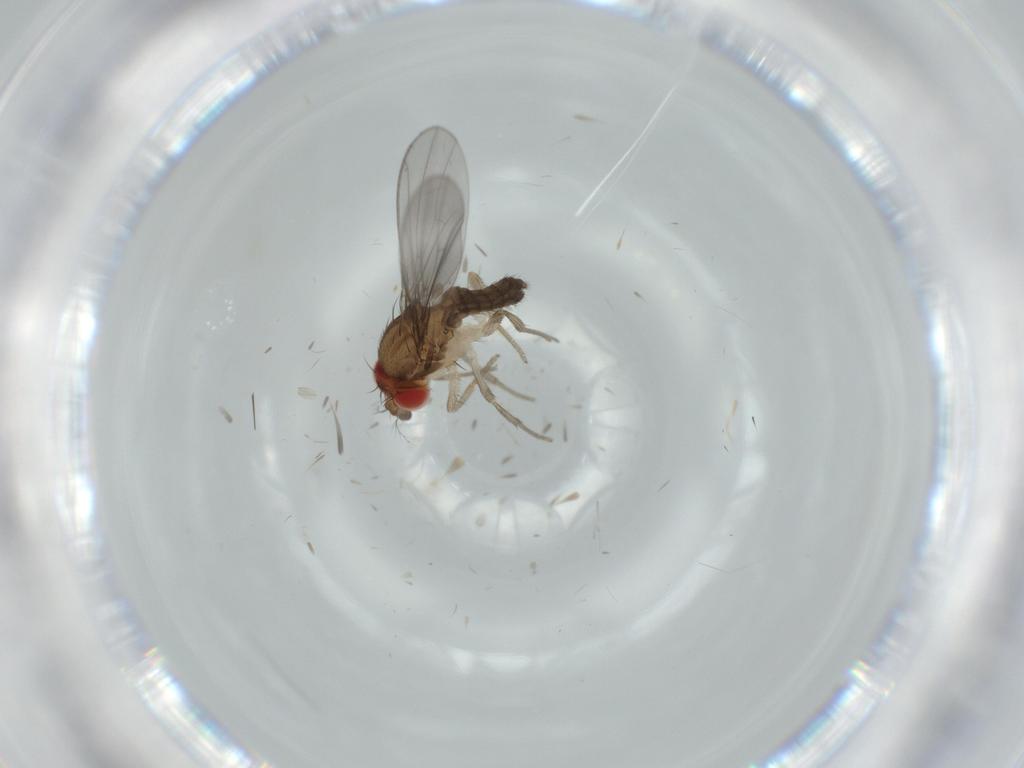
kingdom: Animalia
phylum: Arthropoda
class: Insecta
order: Diptera
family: Drosophilidae
